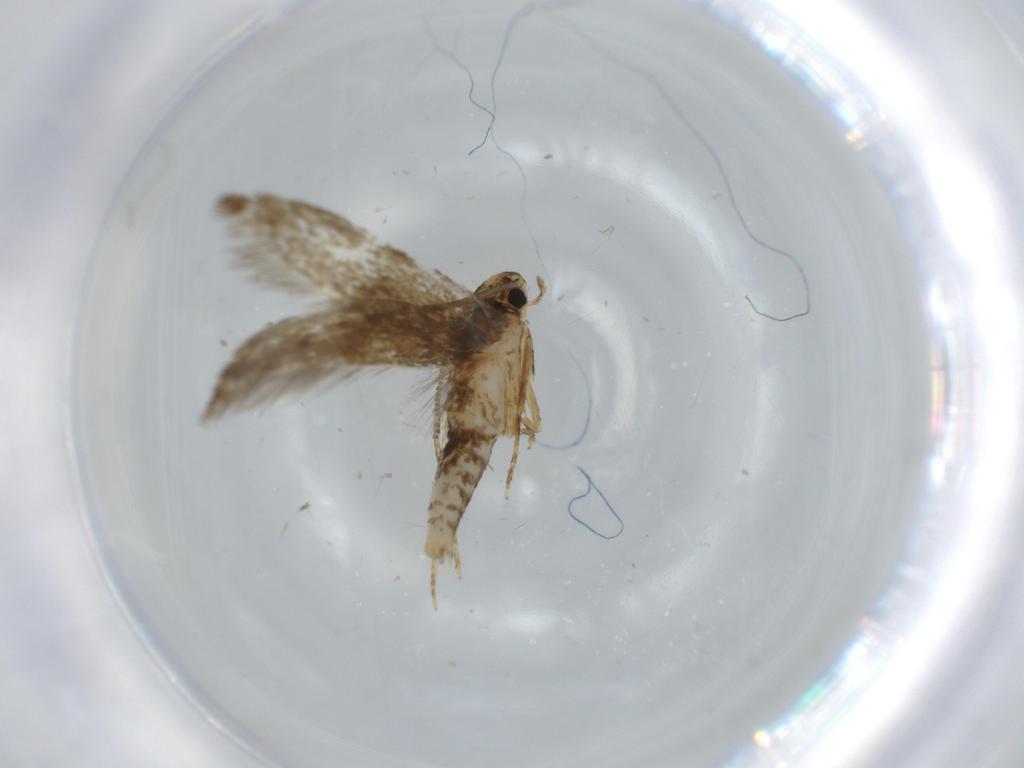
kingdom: Animalia
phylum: Arthropoda
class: Insecta
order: Lepidoptera
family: Tineidae
